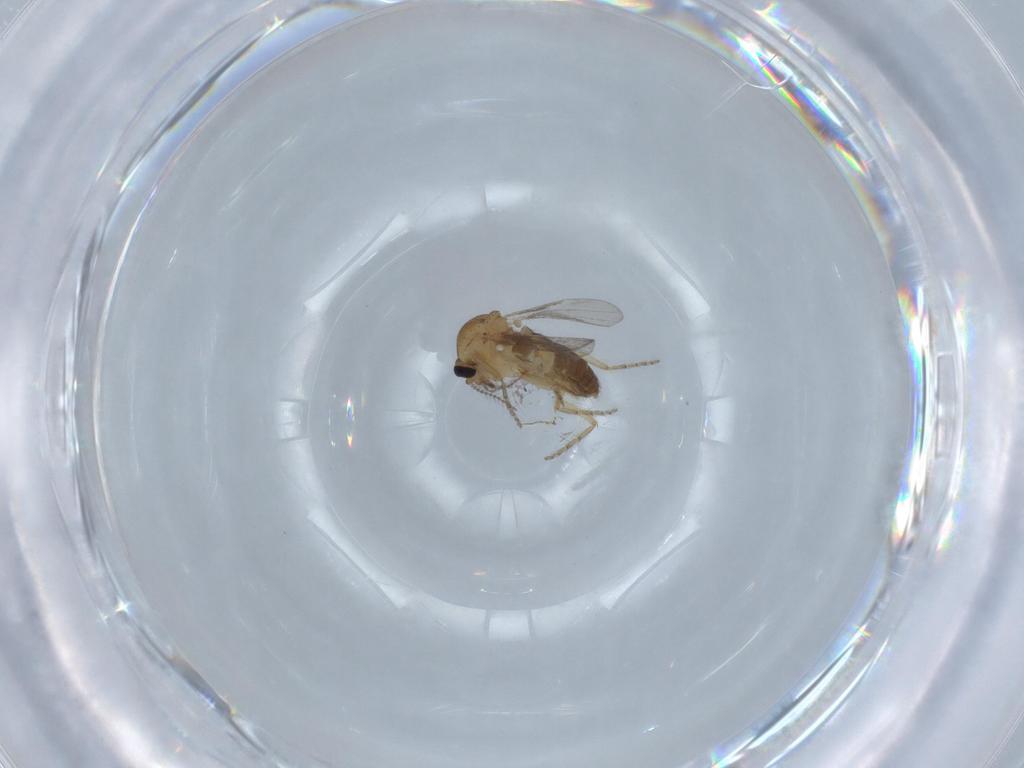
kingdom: Animalia
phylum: Arthropoda
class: Insecta
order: Diptera
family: Ceratopogonidae
